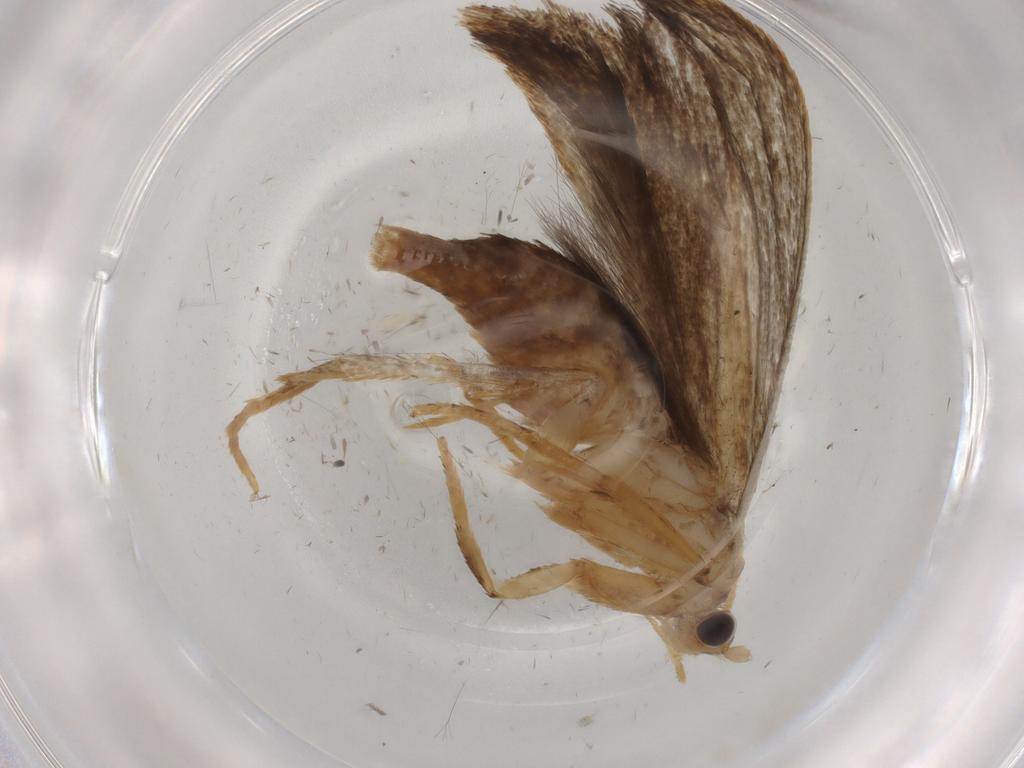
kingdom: Animalia
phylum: Arthropoda
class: Insecta
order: Lepidoptera
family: Tineidae
